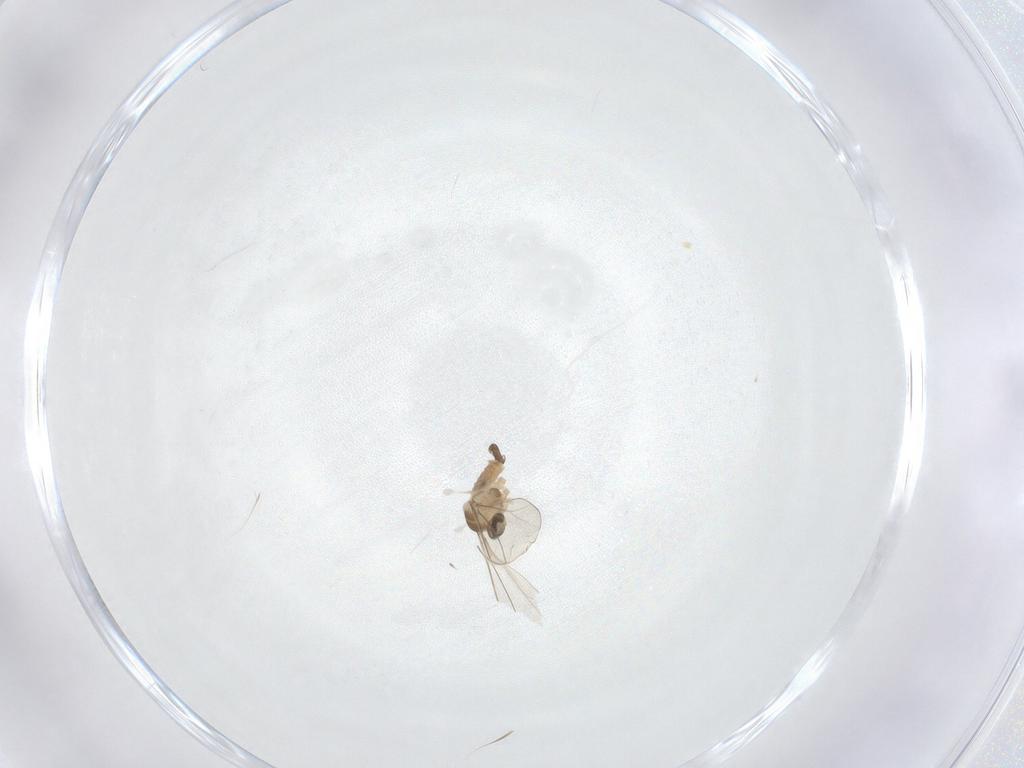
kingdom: Animalia
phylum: Arthropoda
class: Insecta
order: Diptera
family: Cecidomyiidae
